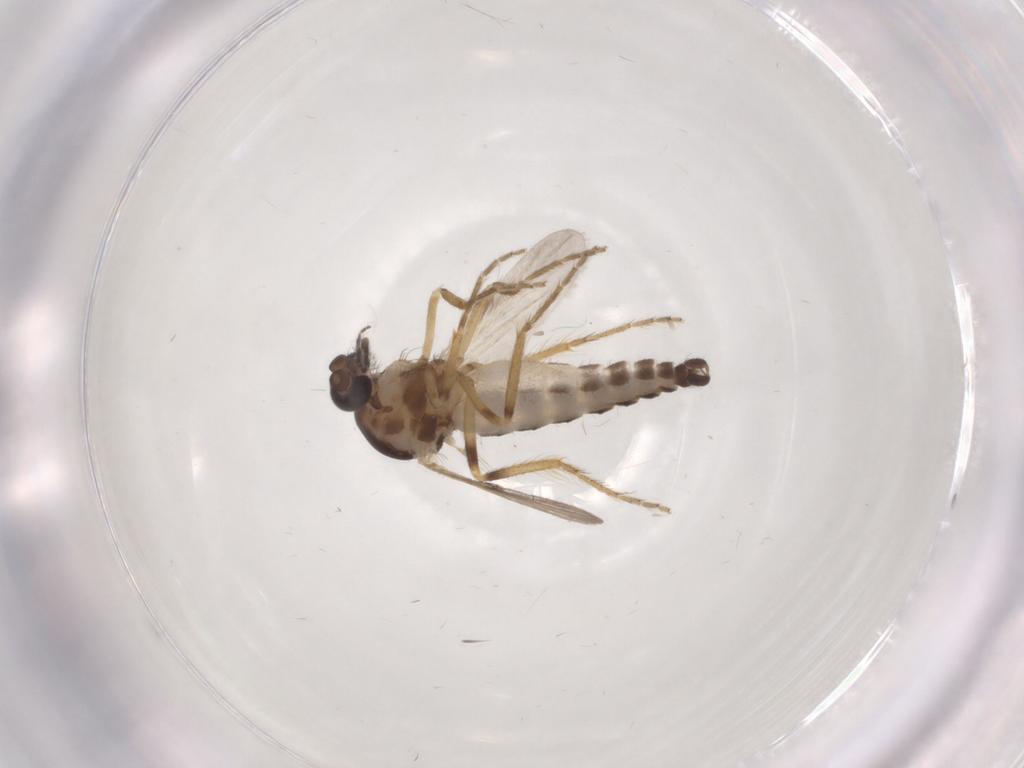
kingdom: Animalia
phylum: Arthropoda
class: Insecta
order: Diptera
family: Ceratopogonidae
